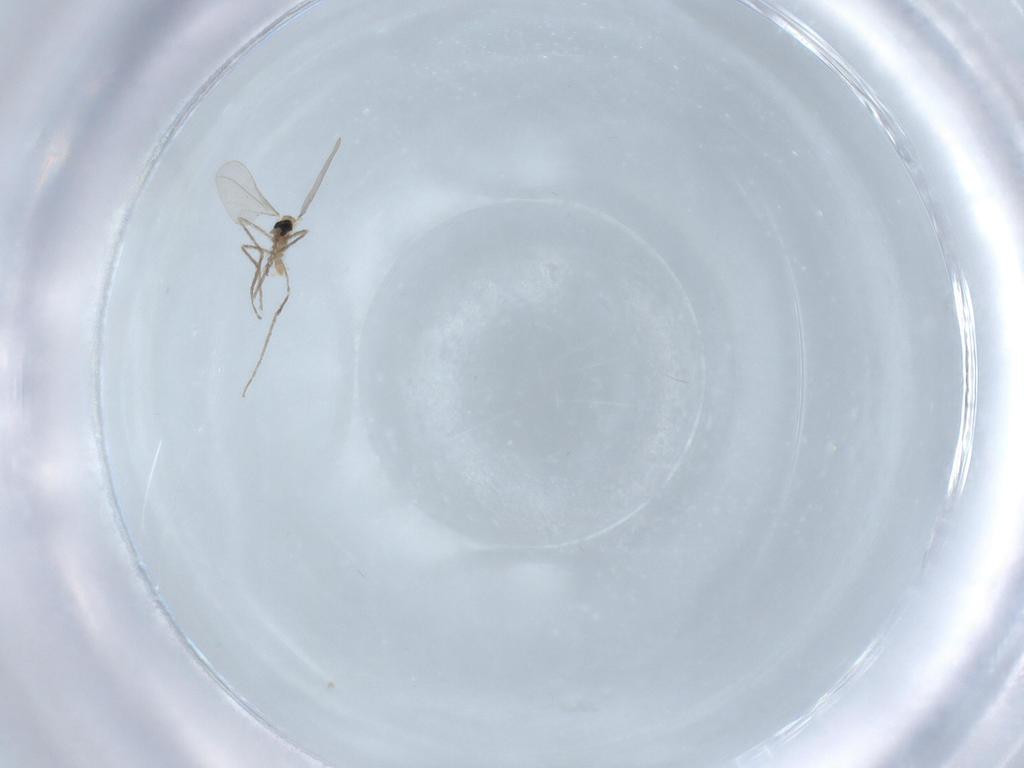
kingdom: Animalia
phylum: Arthropoda
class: Insecta
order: Diptera
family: Cecidomyiidae
